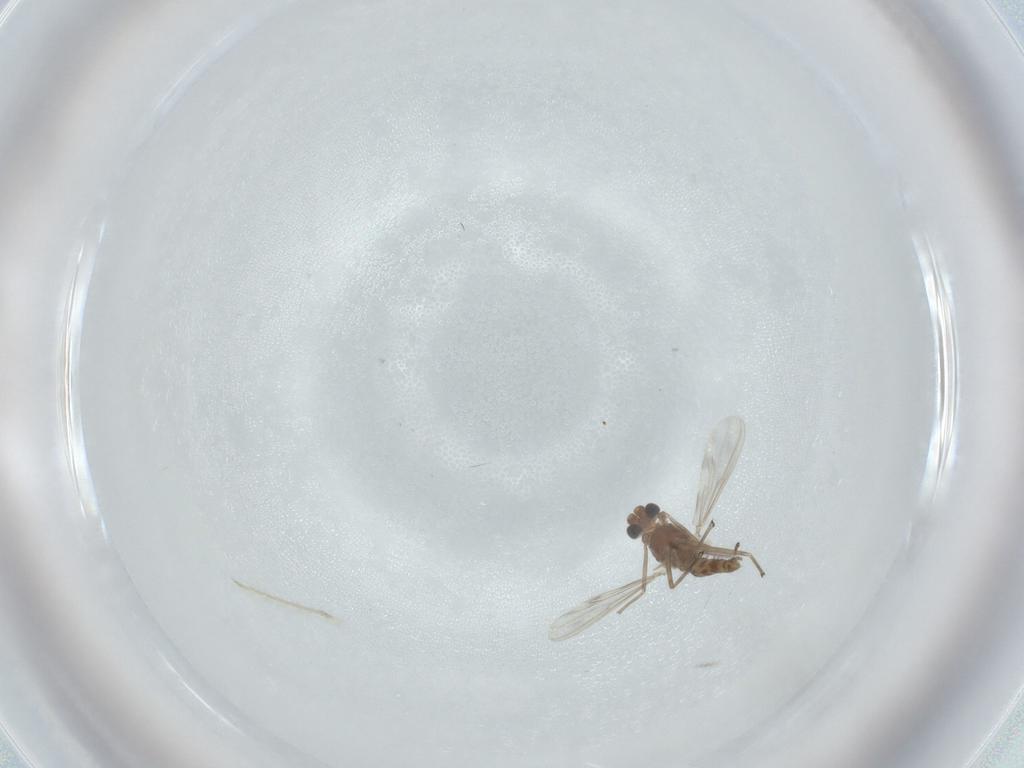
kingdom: Animalia
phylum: Arthropoda
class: Insecta
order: Diptera
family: Chironomidae
